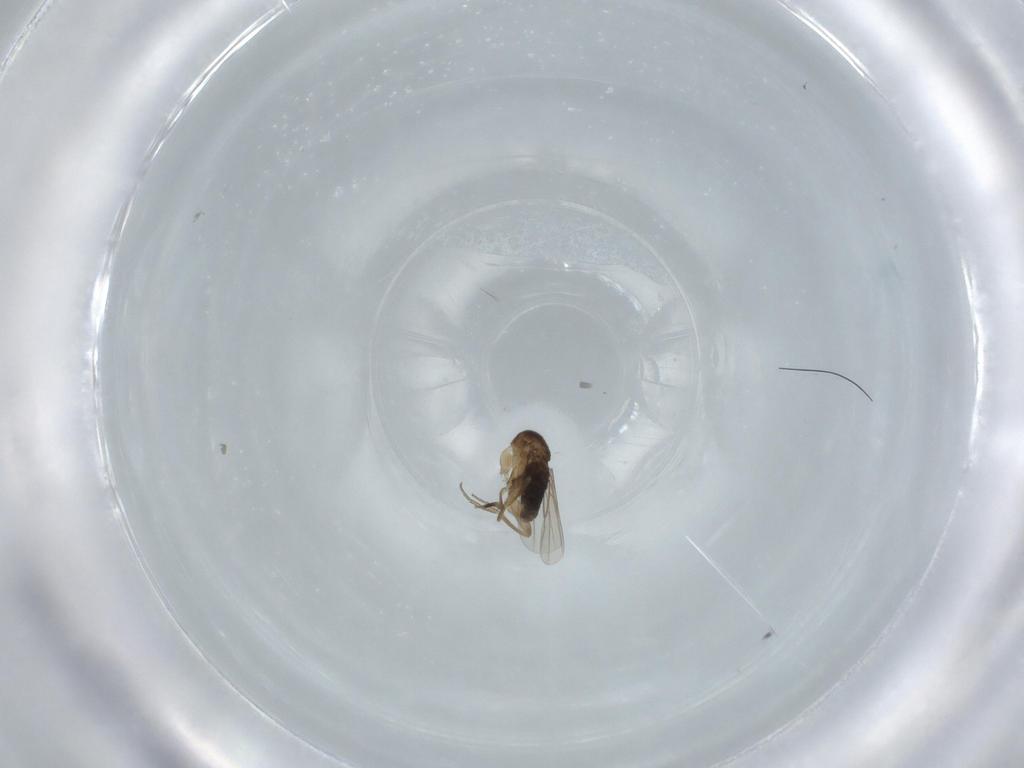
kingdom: Animalia
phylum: Arthropoda
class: Insecta
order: Diptera
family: Phoridae
